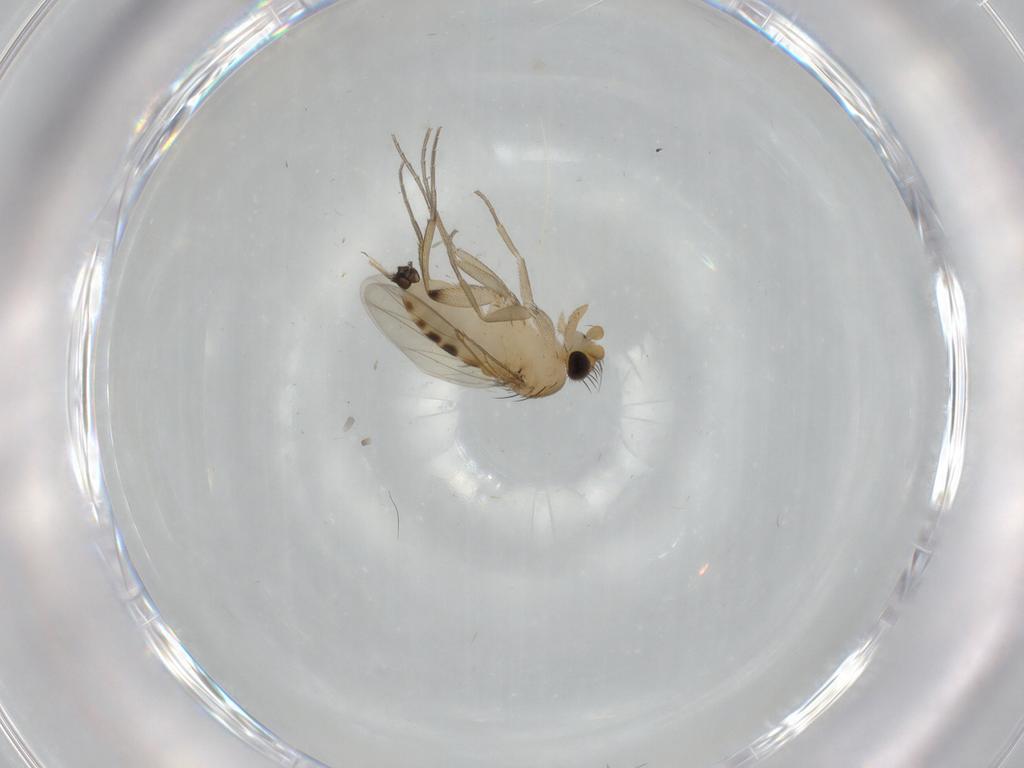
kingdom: Animalia
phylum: Arthropoda
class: Insecta
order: Diptera
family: Phoridae
